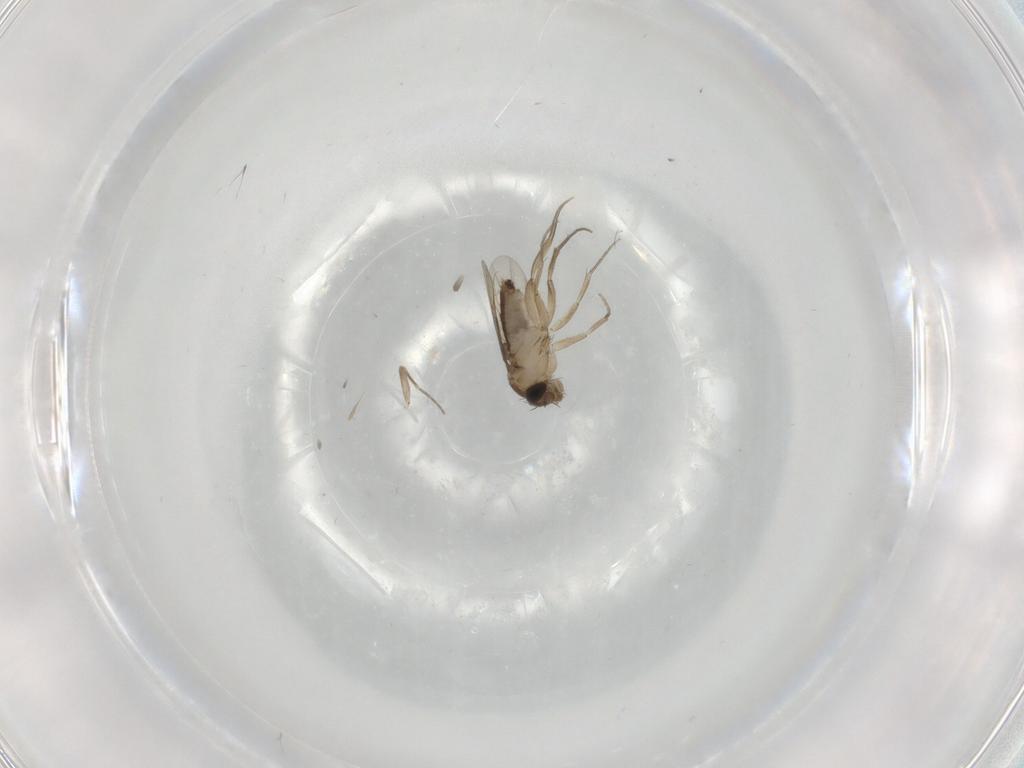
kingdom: Animalia
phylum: Arthropoda
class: Insecta
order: Diptera
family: Phoridae
